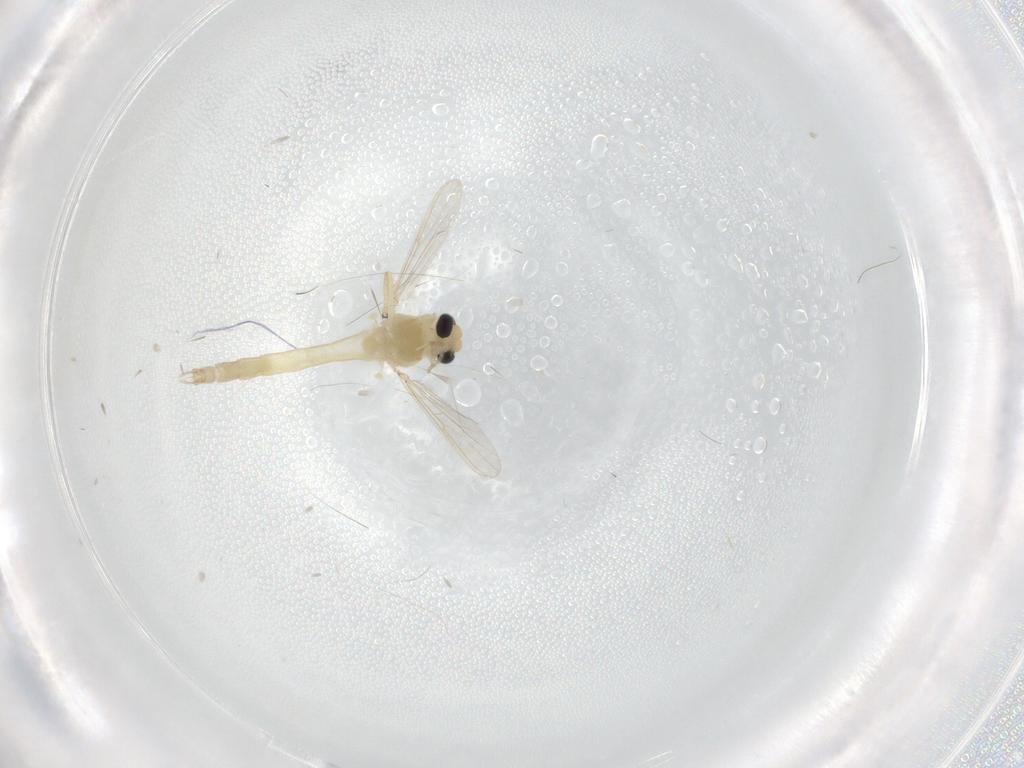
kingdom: Animalia
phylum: Arthropoda
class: Insecta
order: Diptera
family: Chironomidae
